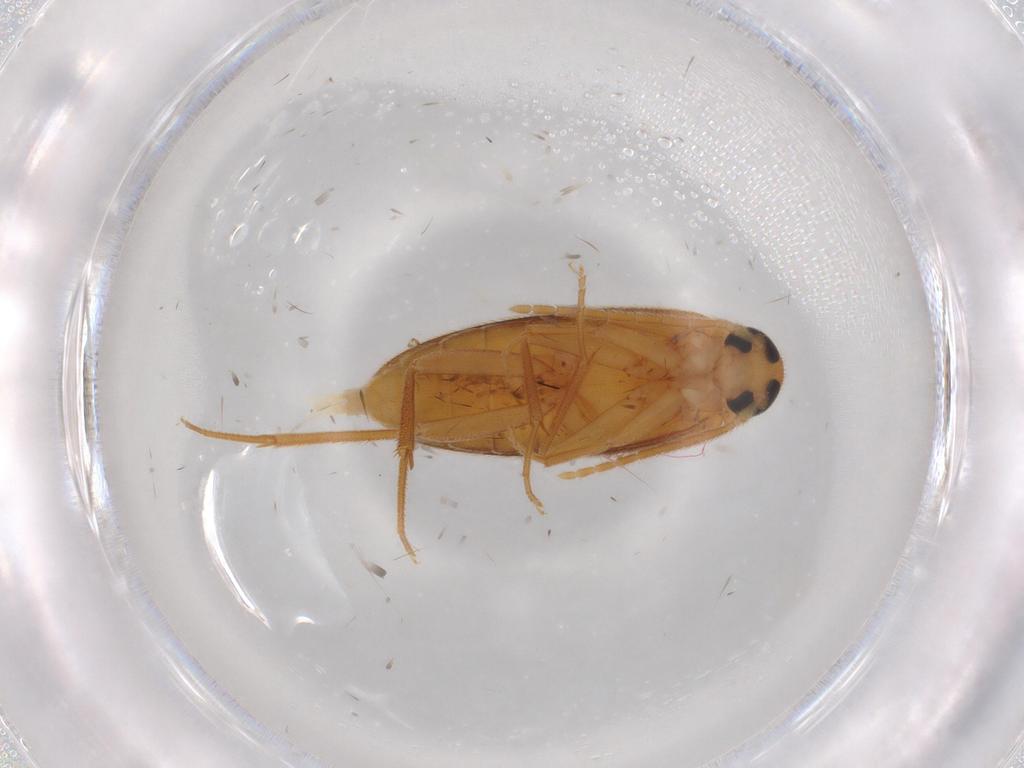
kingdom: Animalia
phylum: Arthropoda
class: Insecta
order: Coleoptera
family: Scraptiidae
